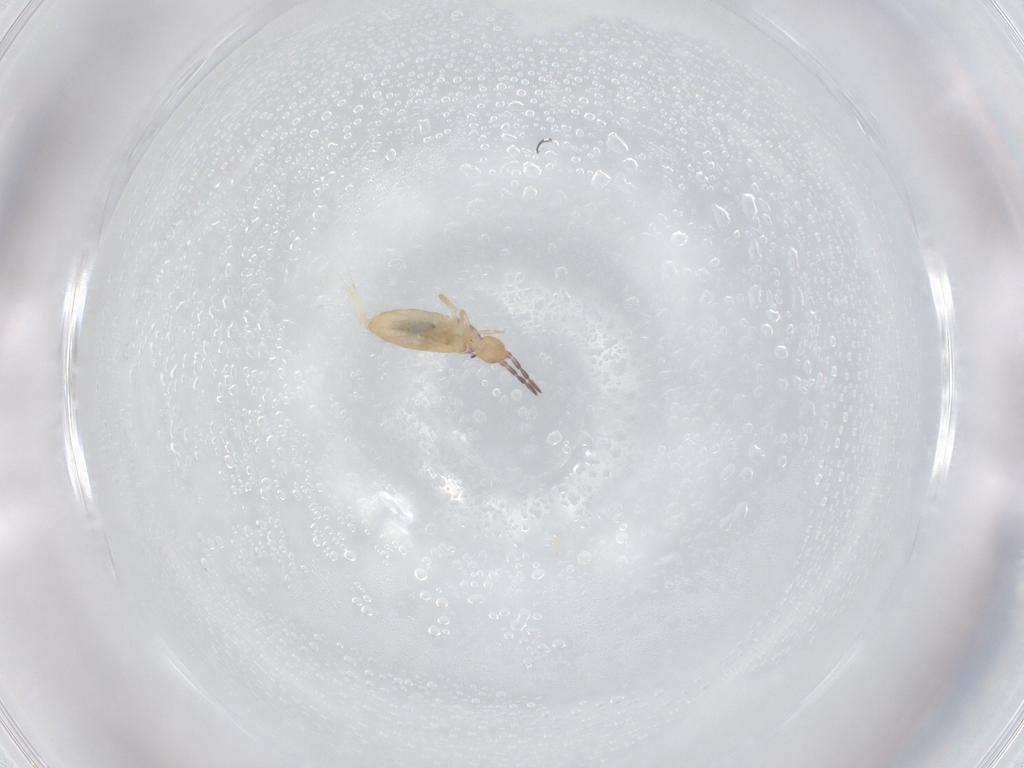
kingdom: Animalia
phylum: Arthropoda
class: Collembola
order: Entomobryomorpha
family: Entomobryidae
